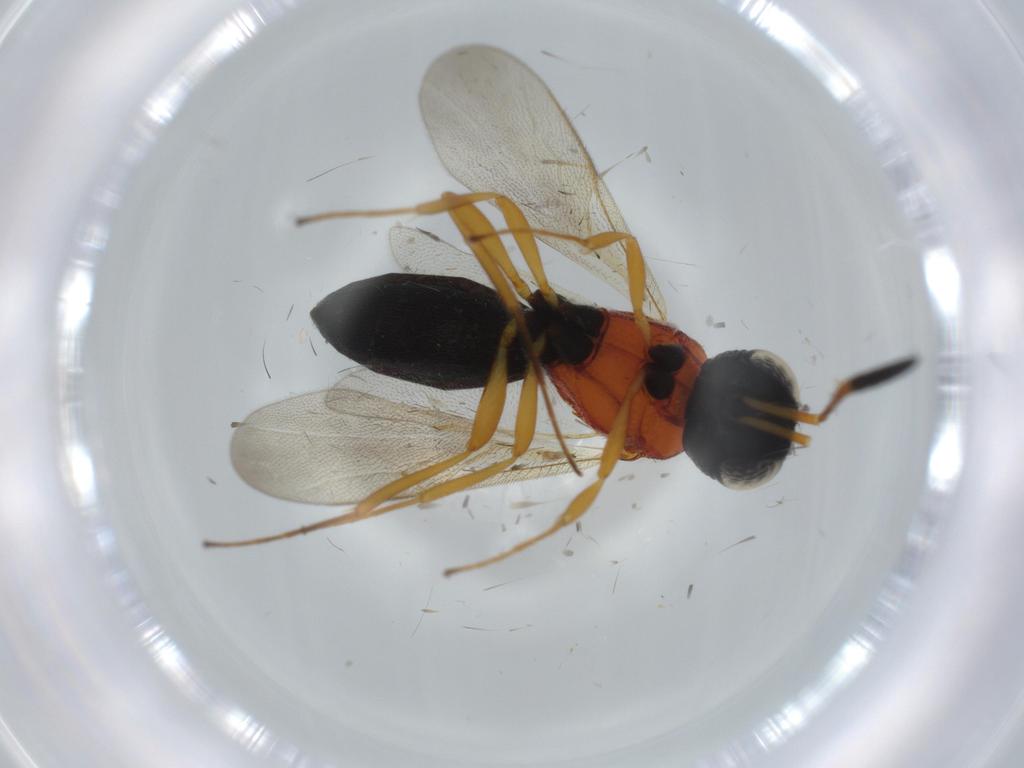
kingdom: Animalia
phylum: Arthropoda
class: Insecta
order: Hymenoptera
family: Scelionidae
